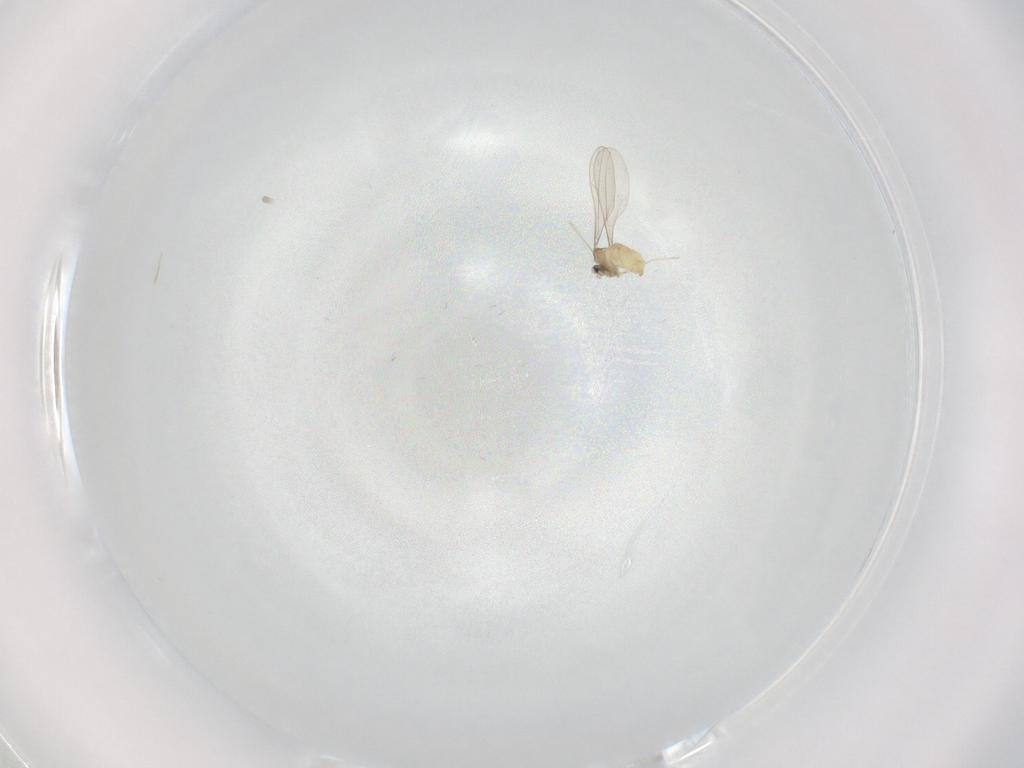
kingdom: Animalia
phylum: Arthropoda
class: Insecta
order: Diptera
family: Cecidomyiidae
